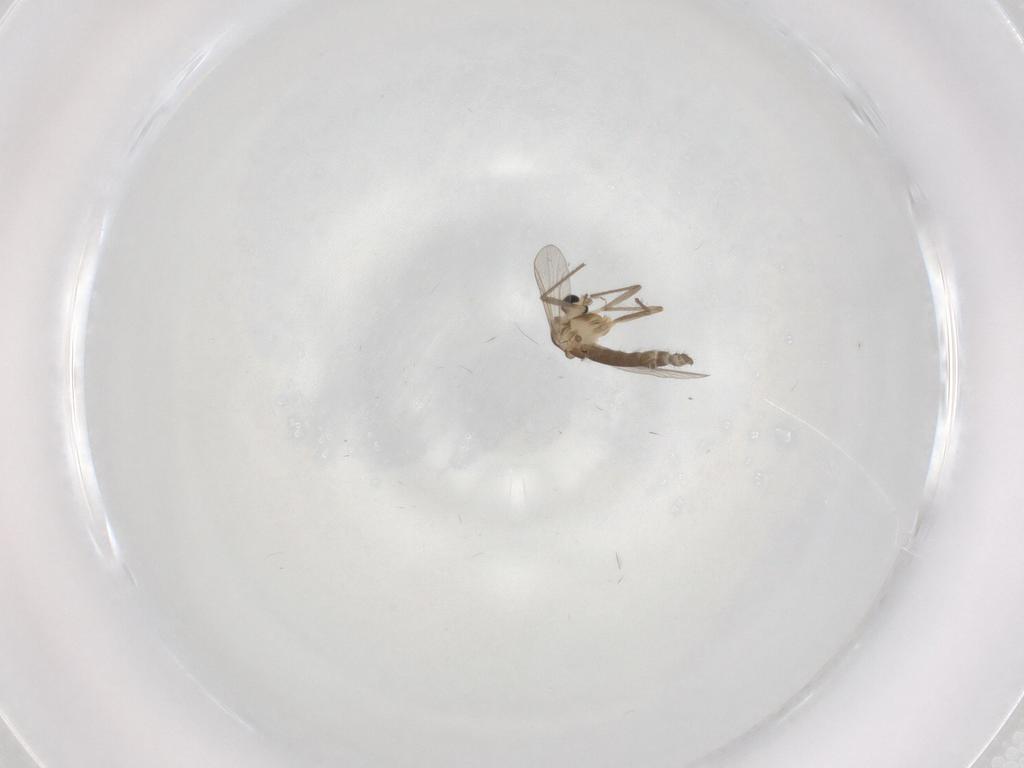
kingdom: Animalia
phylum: Arthropoda
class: Insecta
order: Diptera
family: Chironomidae
